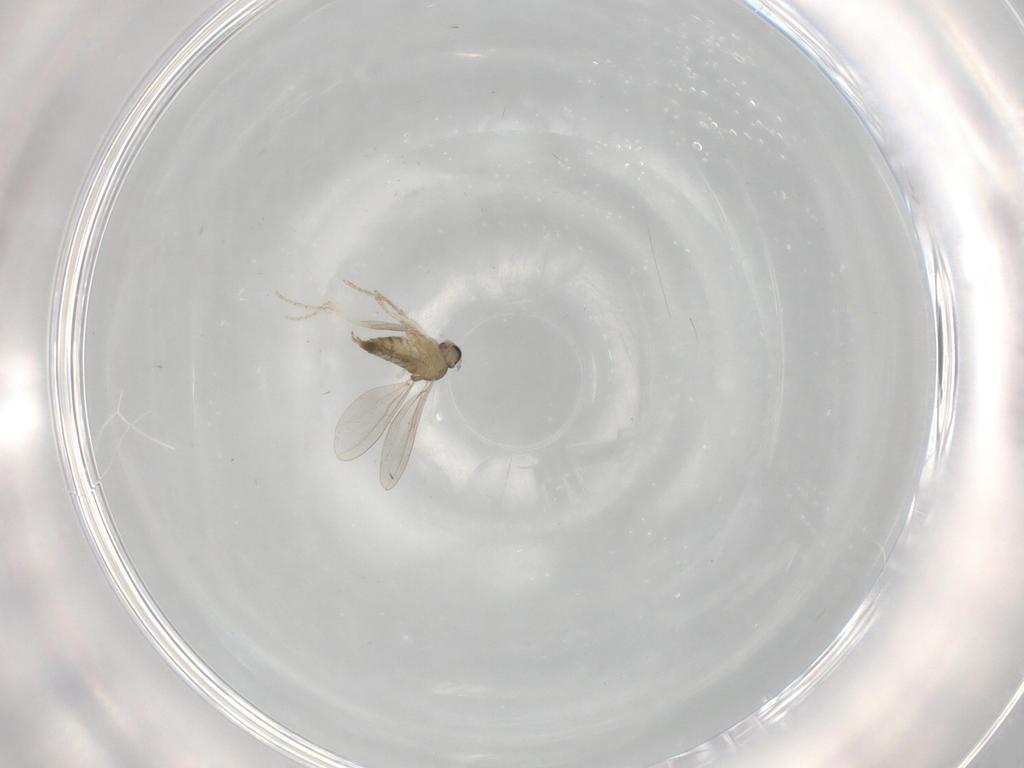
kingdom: Animalia
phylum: Arthropoda
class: Insecta
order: Diptera
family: Cecidomyiidae
